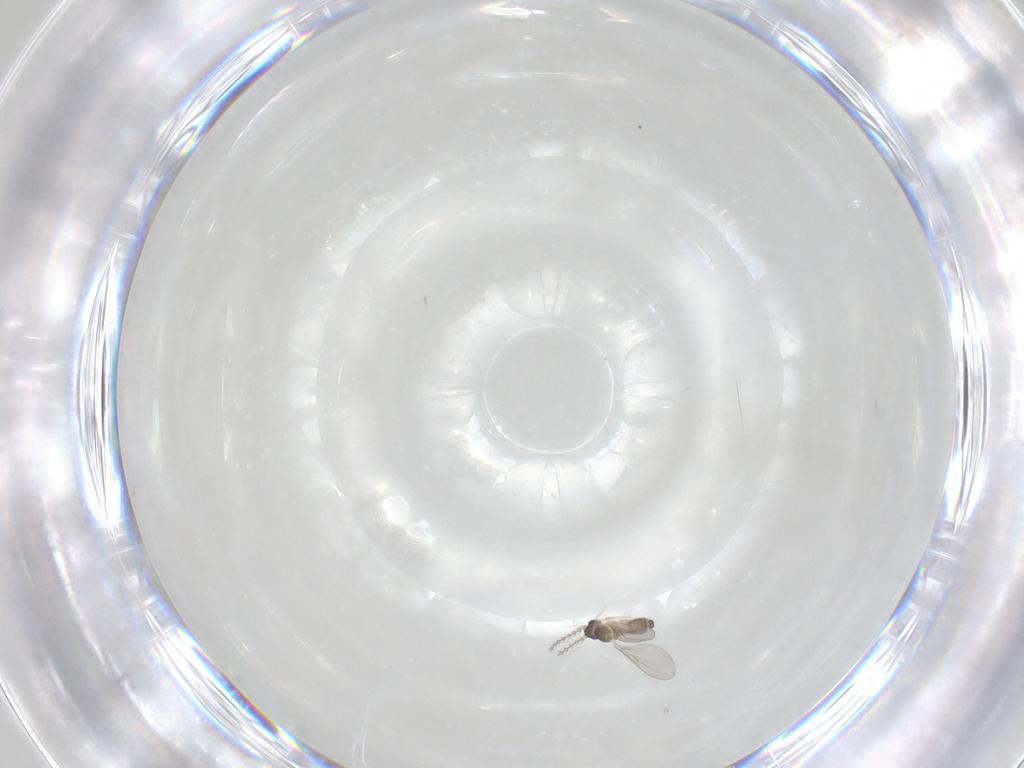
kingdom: Animalia
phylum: Arthropoda
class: Insecta
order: Diptera
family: Cecidomyiidae
